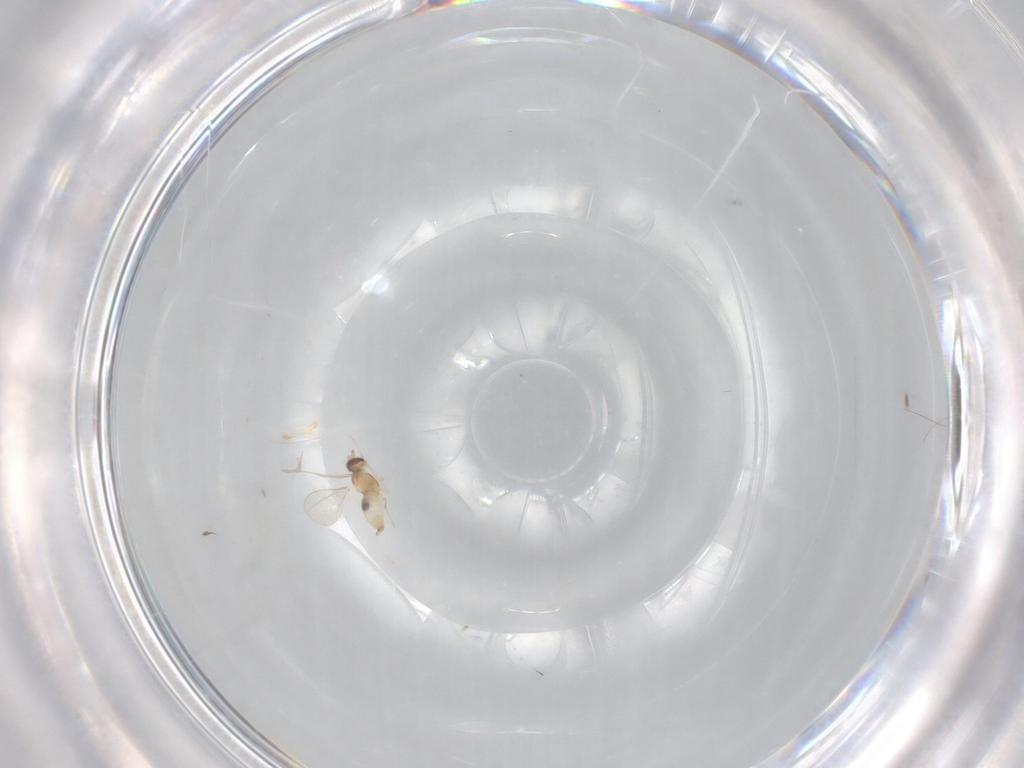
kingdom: Animalia
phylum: Arthropoda
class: Insecta
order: Diptera
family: Cecidomyiidae
